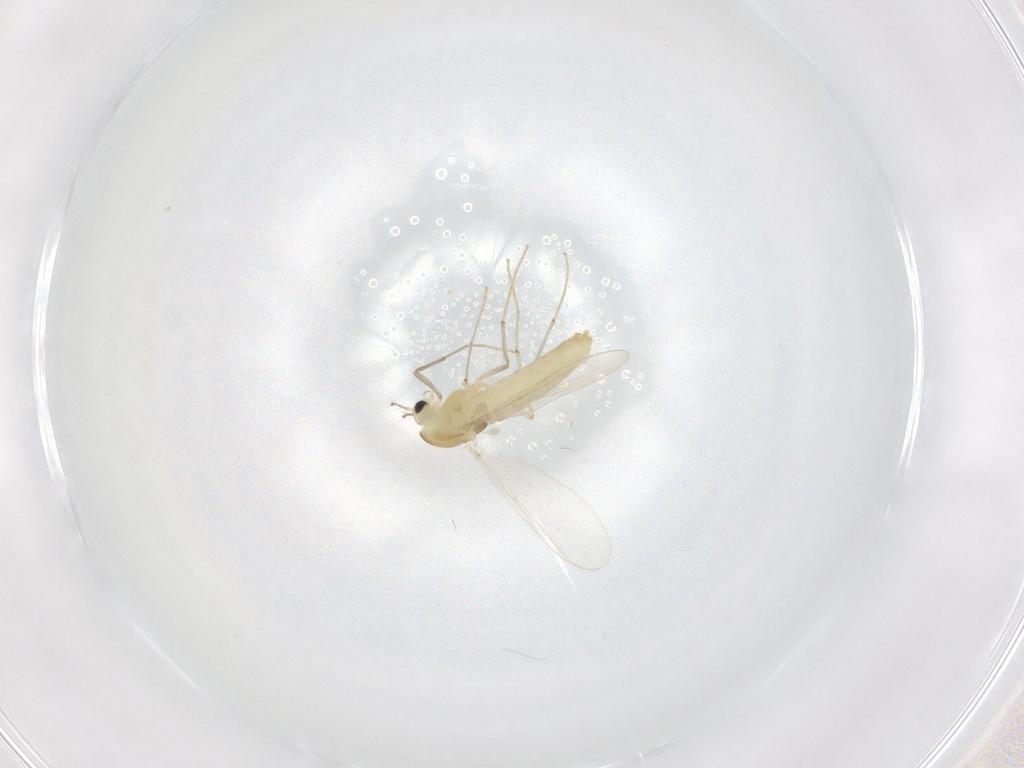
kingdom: Animalia
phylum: Arthropoda
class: Insecta
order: Diptera
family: Chironomidae
